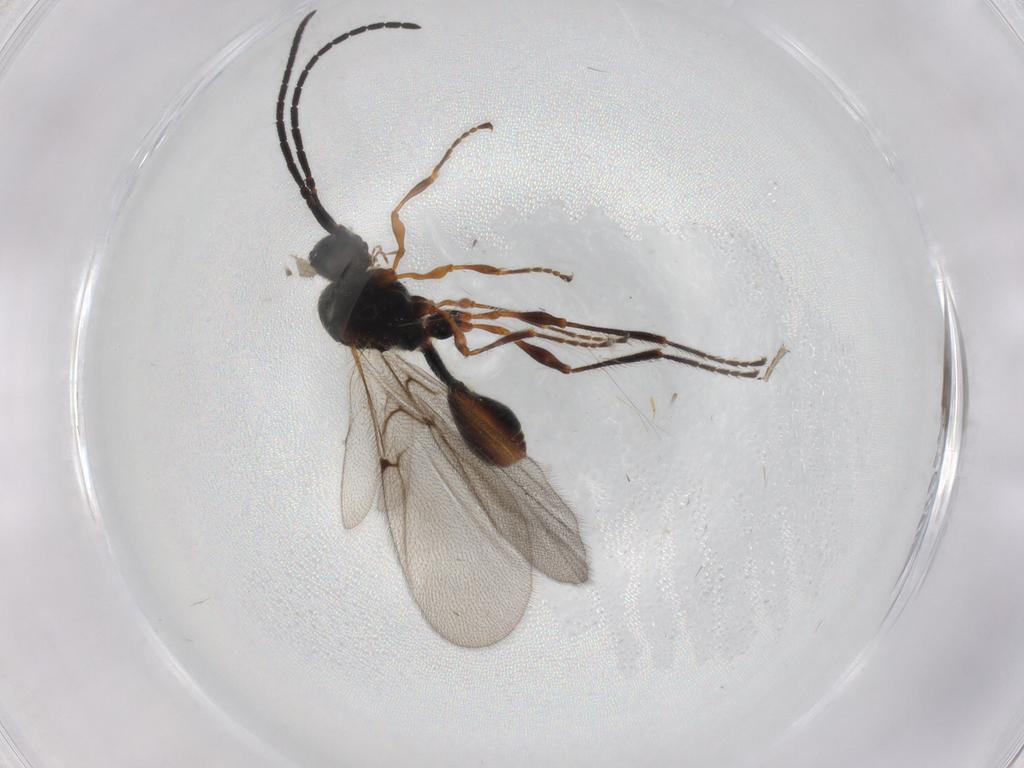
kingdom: Animalia
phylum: Arthropoda
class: Insecta
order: Hymenoptera
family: Diapriidae
